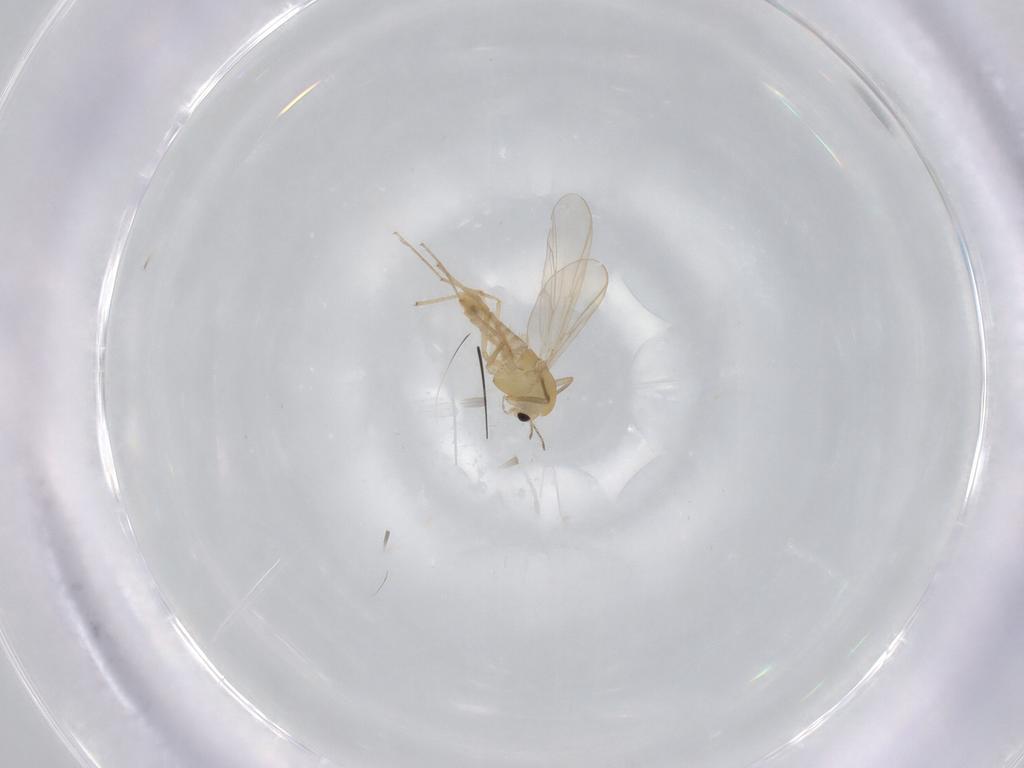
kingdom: Animalia
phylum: Arthropoda
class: Insecta
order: Diptera
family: Chironomidae
